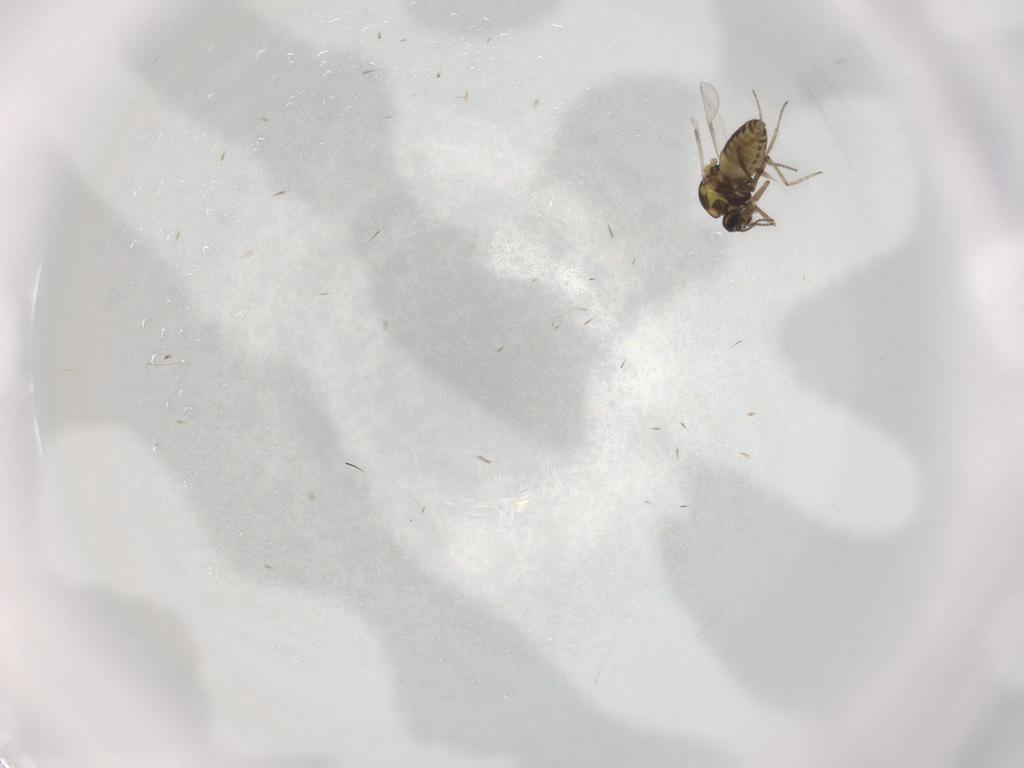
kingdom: Animalia
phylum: Arthropoda
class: Insecta
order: Diptera
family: Ceratopogonidae
